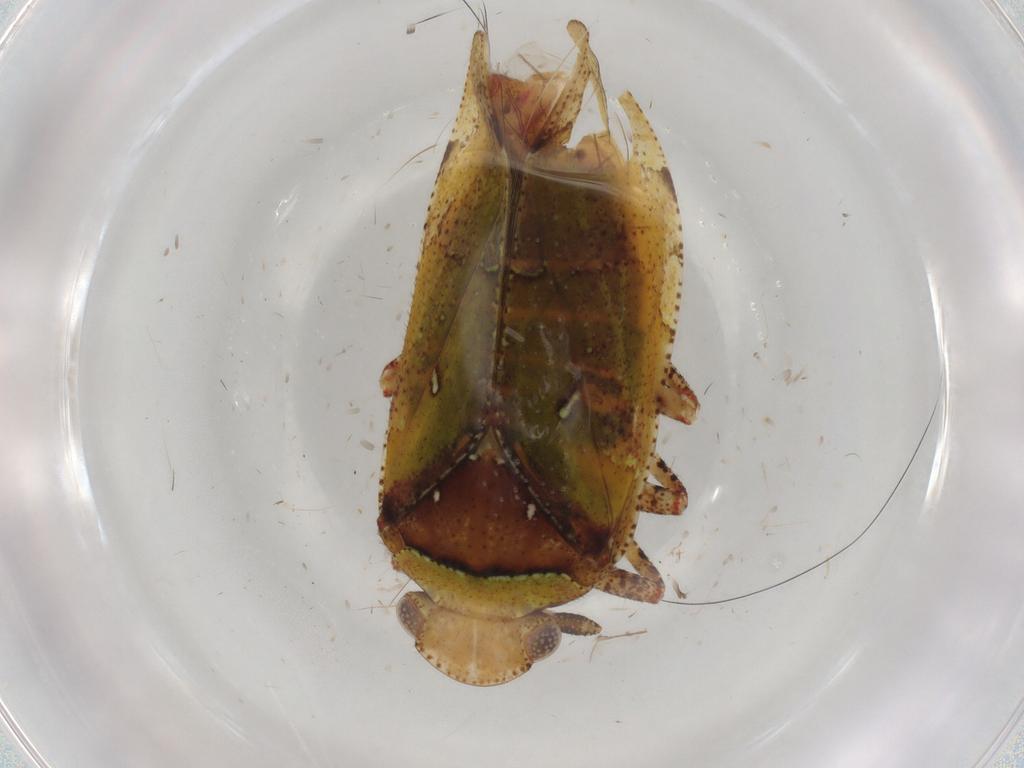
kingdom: Animalia
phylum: Arthropoda
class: Insecta
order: Hemiptera
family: Tettigometridae
